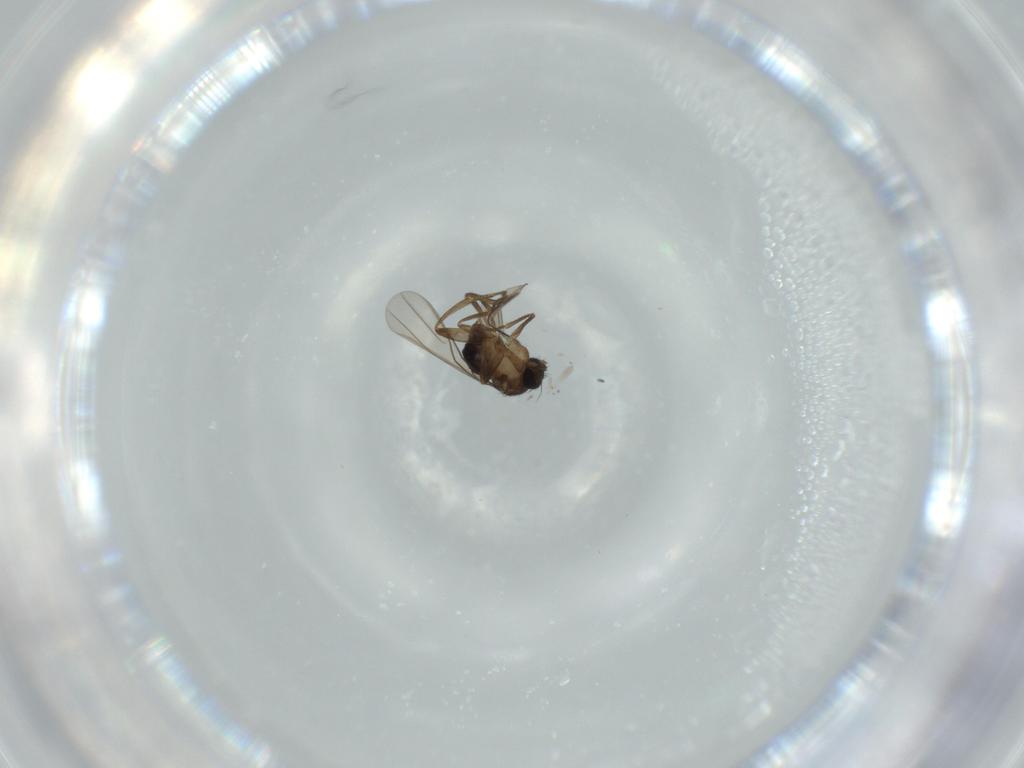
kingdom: Animalia
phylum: Arthropoda
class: Insecta
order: Diptera
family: Phoridae
